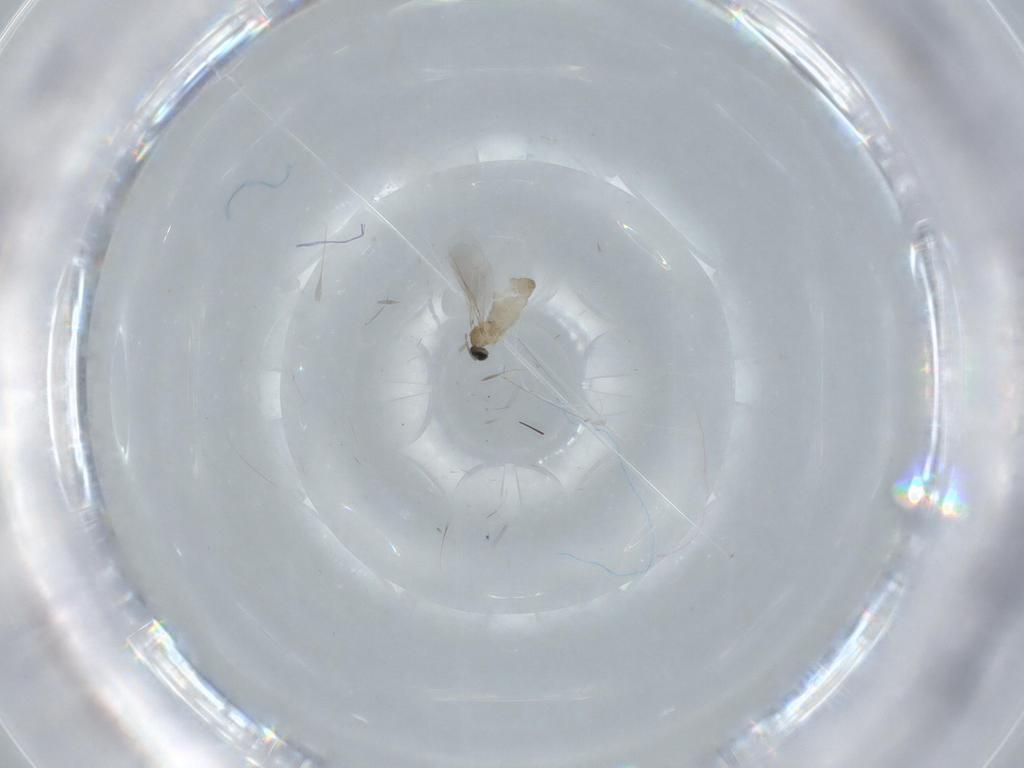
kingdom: Animalia
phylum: Arthropoda
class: Insecta
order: Diptera
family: Cecidomyiidae
